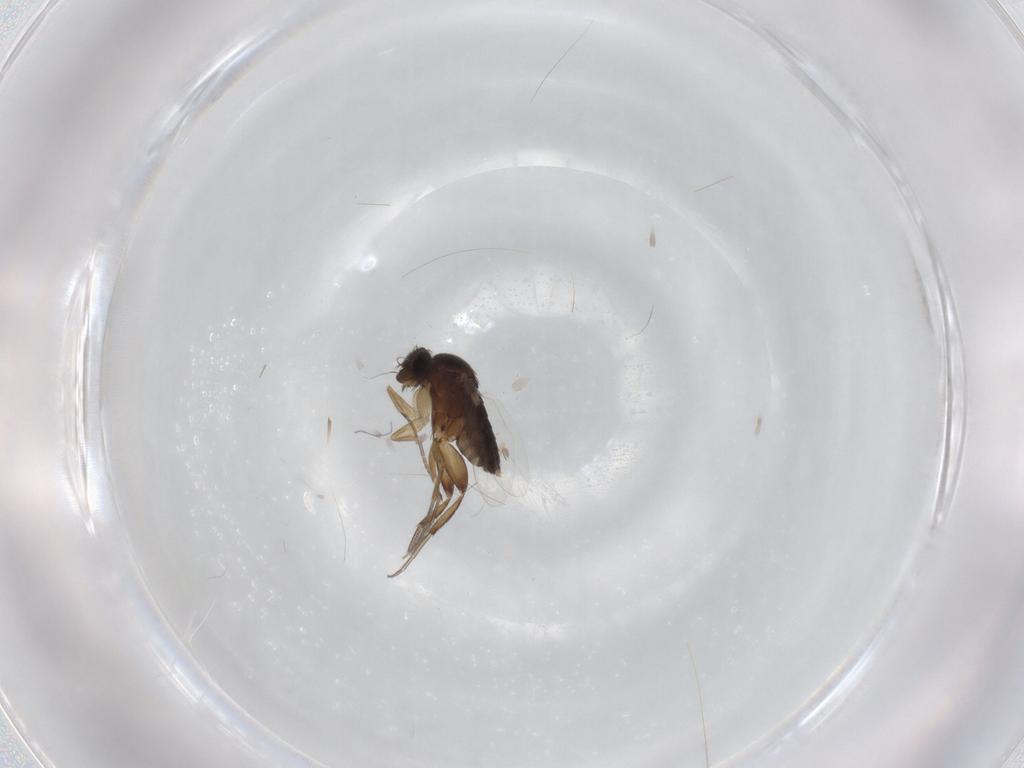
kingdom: Animalia
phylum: Arthropoda
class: Insecta
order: Diptera
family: Phoridae
